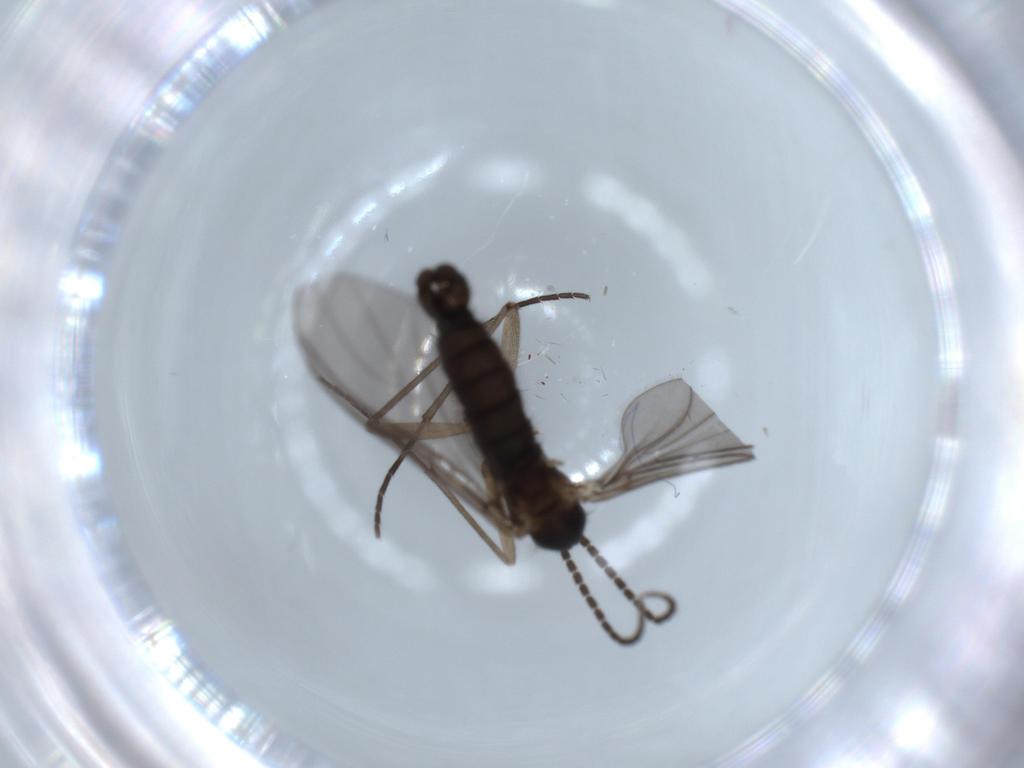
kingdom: Animalia
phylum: Arthropoda
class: Insecta
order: Diptera
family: Sciaridae
